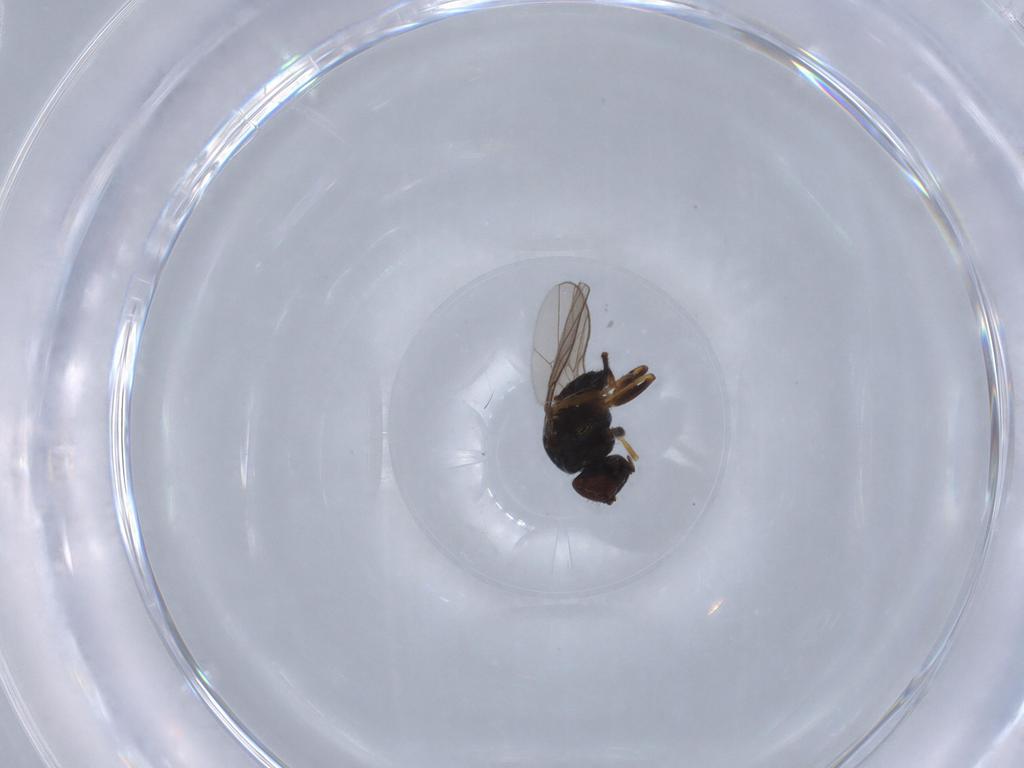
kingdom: Animalia
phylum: Arthropoda
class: Insecta
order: Diptera
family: Chloropidae
